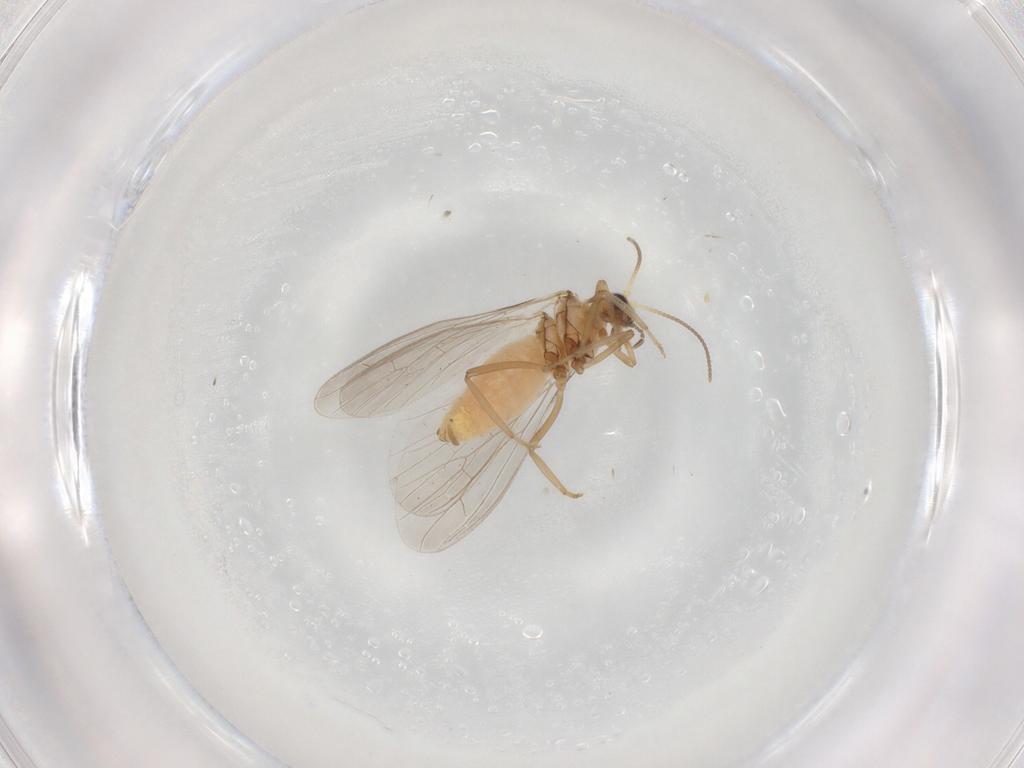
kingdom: Animalia
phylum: Arthropoda
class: Insecta
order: Neuroptera
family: Coniopterygidae
